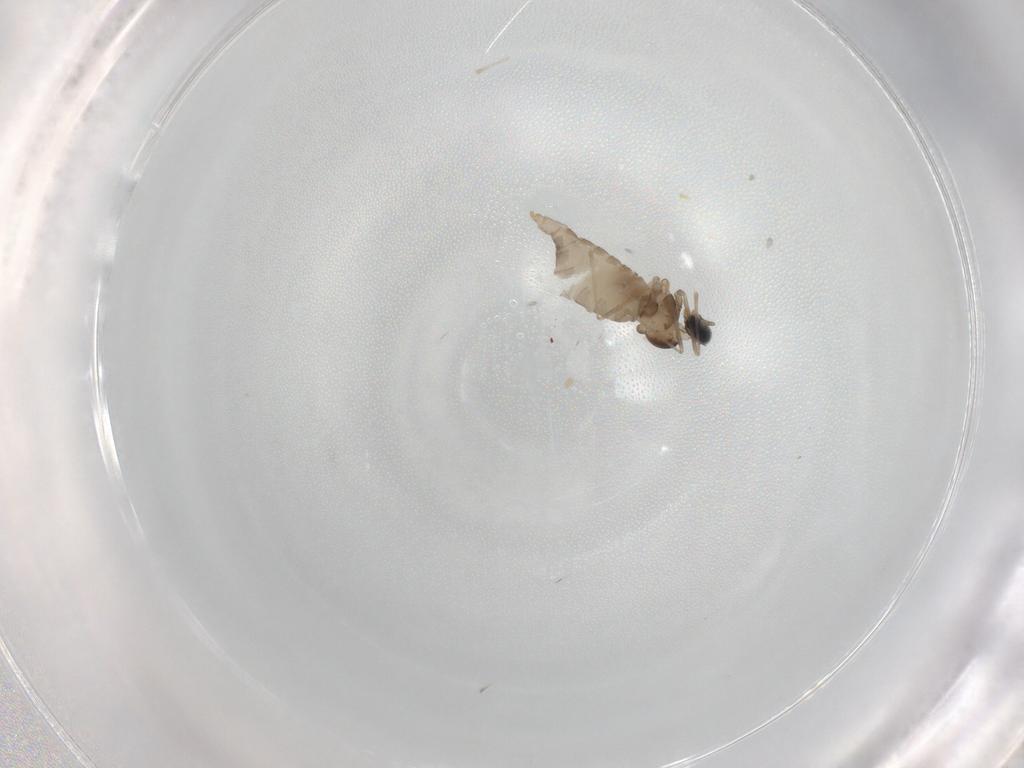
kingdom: Animalia
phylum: Arthropoda
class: Insecta
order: Diptera
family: Cecidomyiidae
